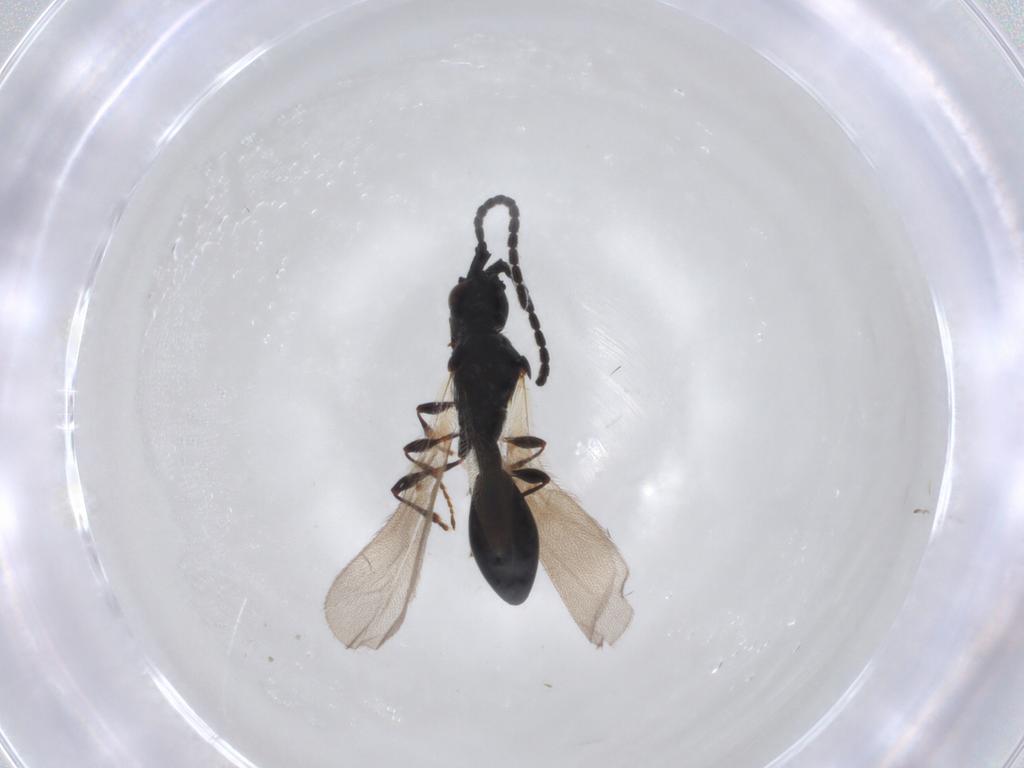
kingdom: Animalia
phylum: Arthropoda
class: Insecta
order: Hymenoptera
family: Diapriidae
